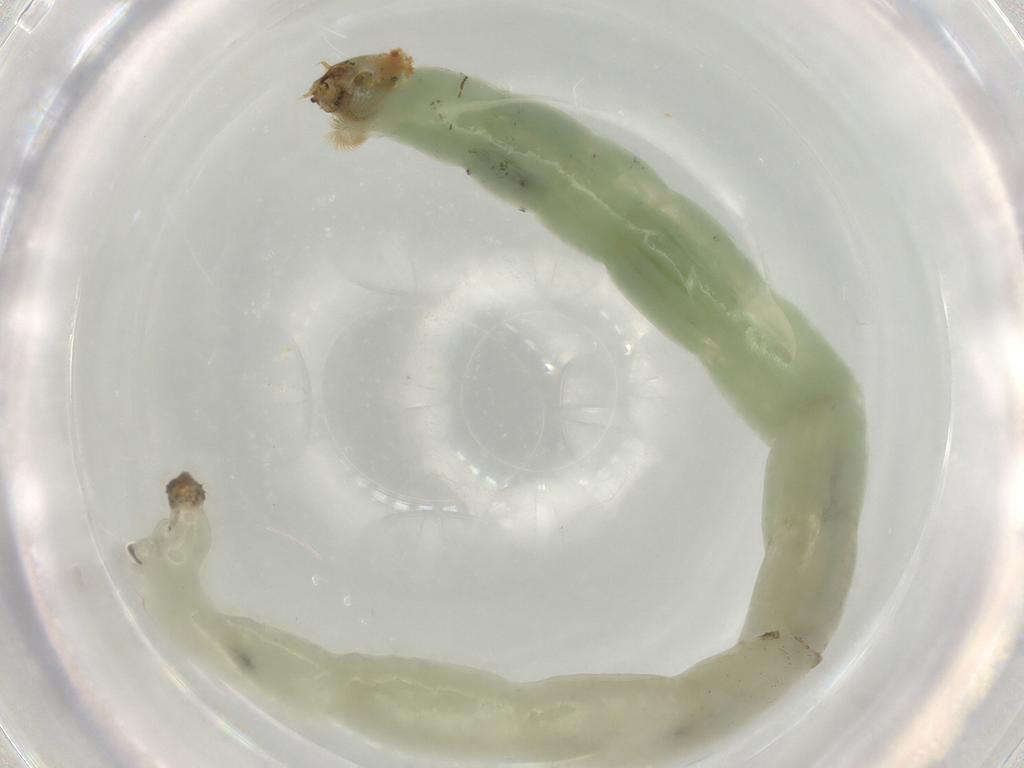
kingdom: Animalia
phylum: Arthropoda
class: Insecta
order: Diptera
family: Chironomidae
